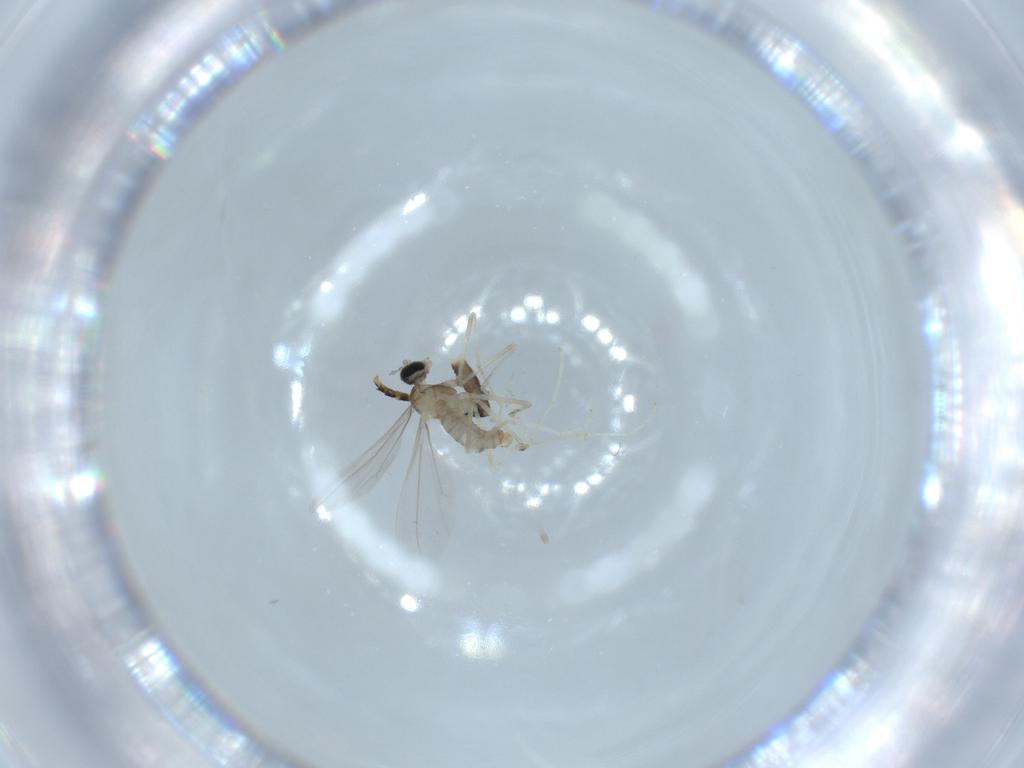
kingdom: Animalia
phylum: Arthropoda
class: Insecta
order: Diptera
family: Cecidomyiidae
